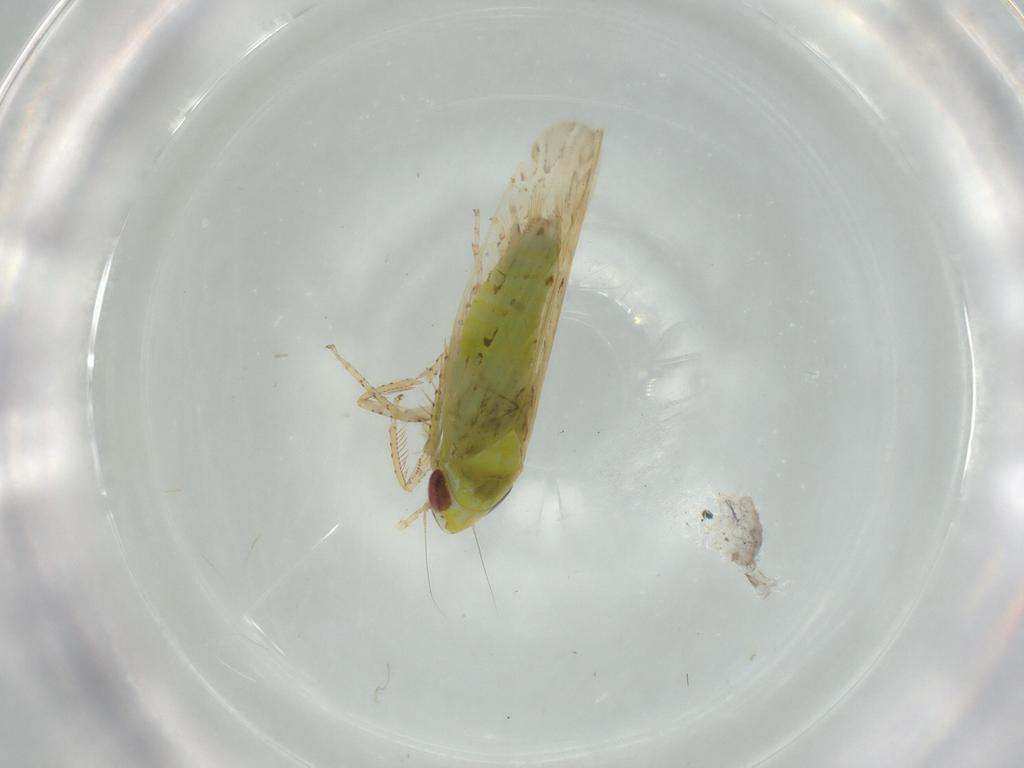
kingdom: Animalia
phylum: Arthropoda
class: Insecta
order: Hemiptera
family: Cicadellidae
